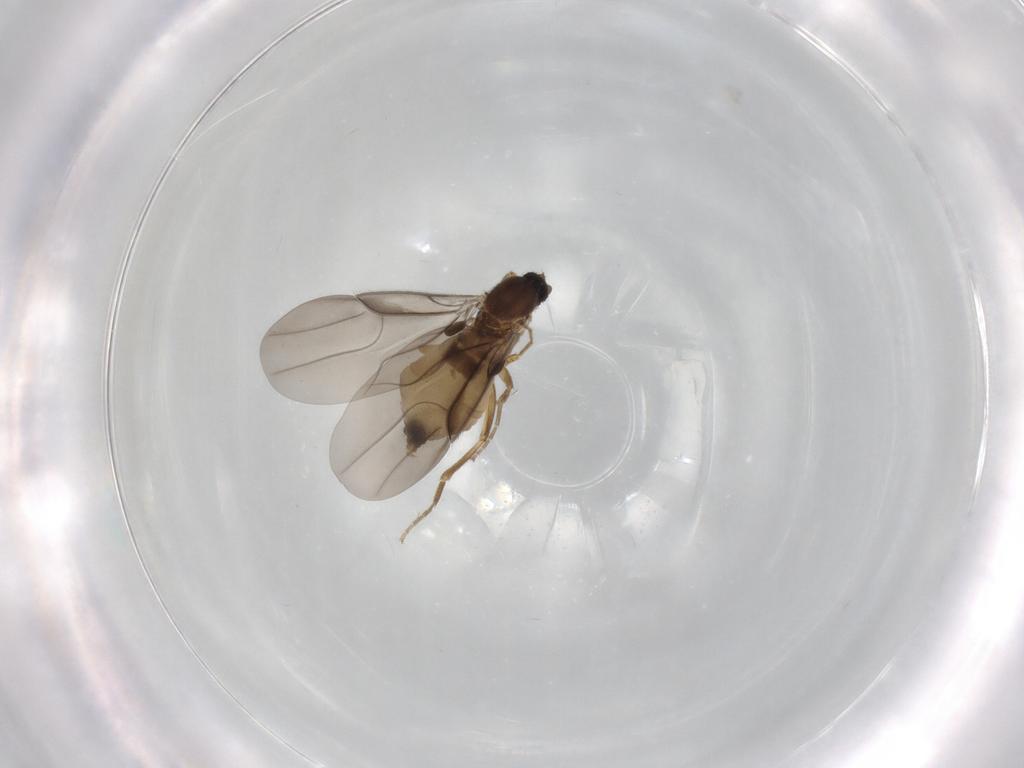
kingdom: Animalia
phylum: Arthropoda
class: Insecta
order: Diptera
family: Phoridae
